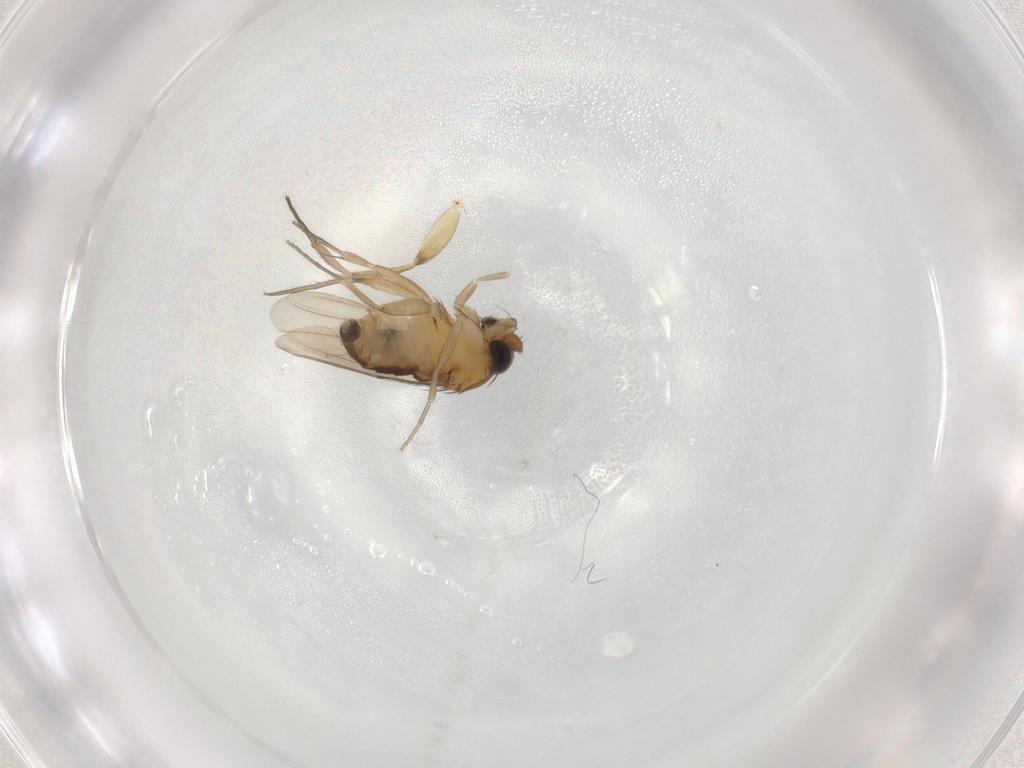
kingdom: Animalia
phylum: Arthropoda
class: Insecta
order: Diptera
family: Phoridae
